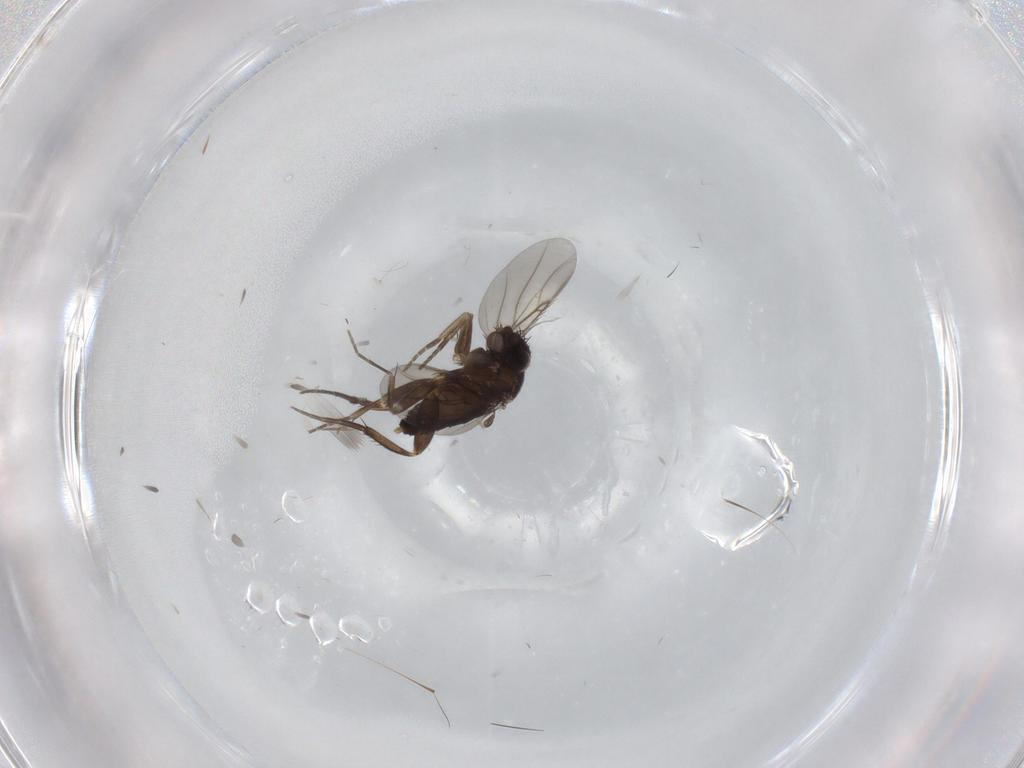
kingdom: Animalia
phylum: Arthropoda
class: Insecta
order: Diptera
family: Phoridae
